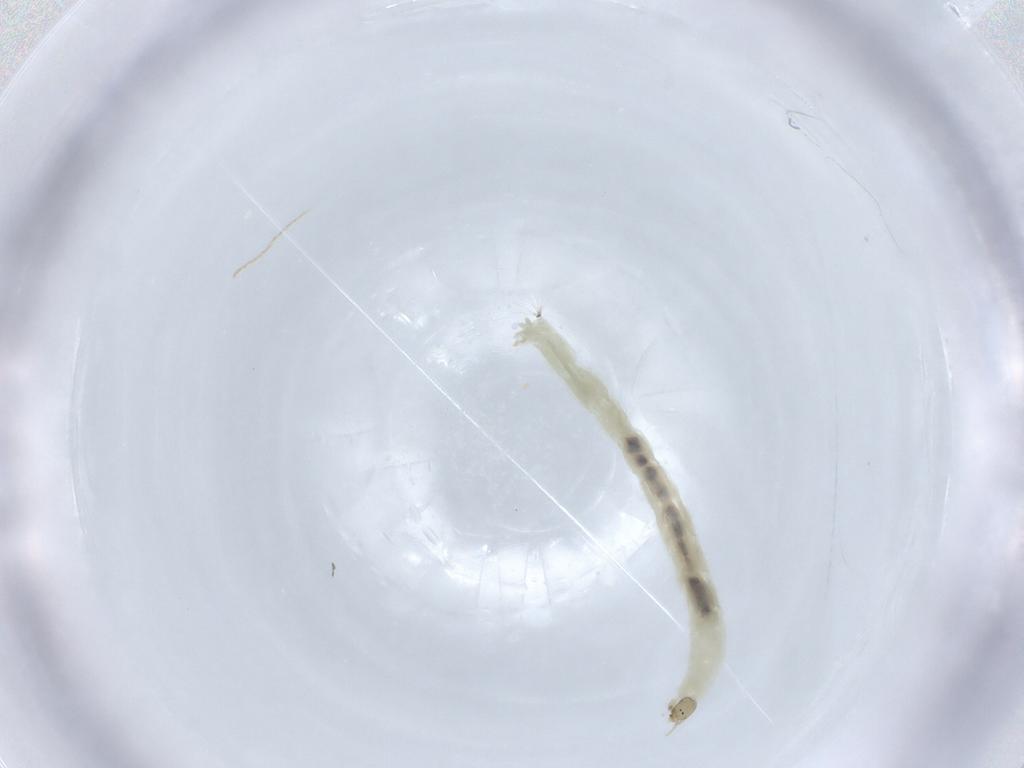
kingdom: Animalia
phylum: Arthropoda
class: Insecta
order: Diptera
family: Chironomidae
